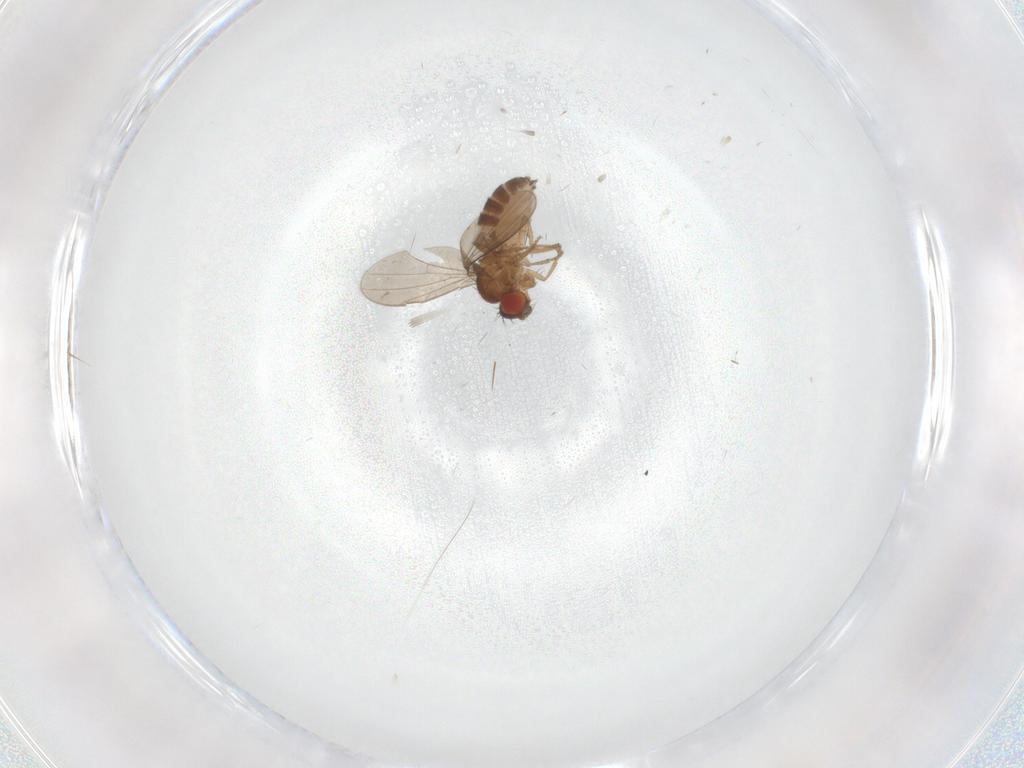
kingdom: Animalia
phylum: Arthropoda
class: Insecta
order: Diptera
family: Drosophilidae
